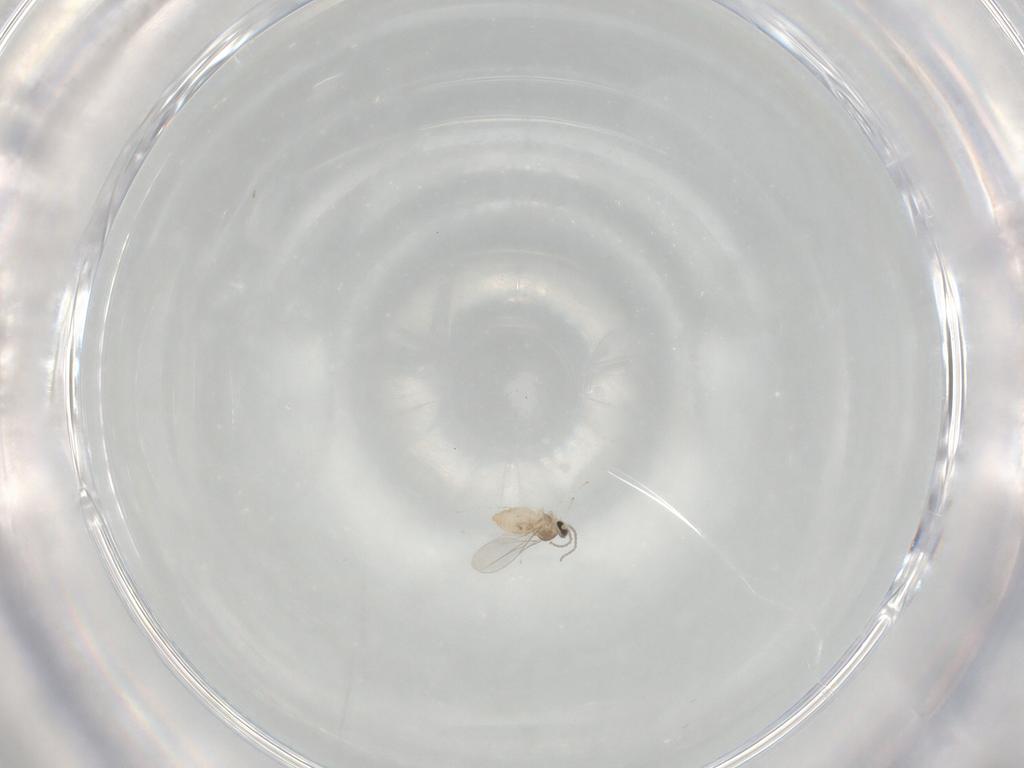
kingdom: Animalia
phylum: Arthropoda
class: Insecta
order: Diptera
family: Cecidomyiidae
